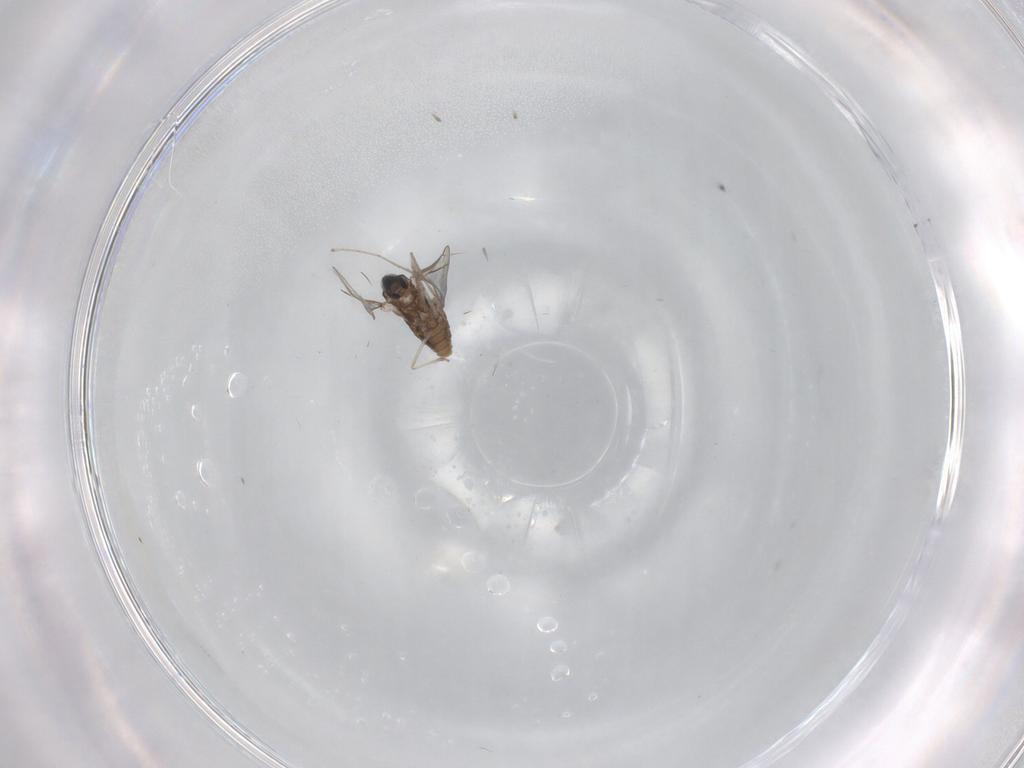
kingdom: Animalia
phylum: Arthropoda
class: Insecta
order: Diptera
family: Cecidomyiidae
